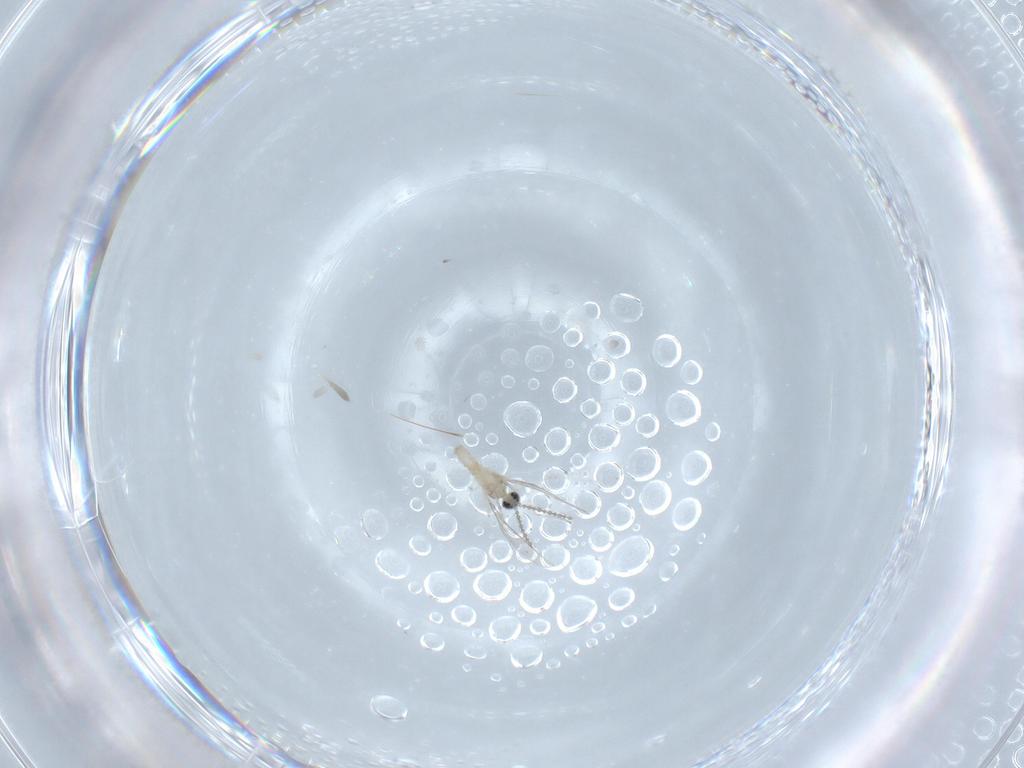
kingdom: Animalia
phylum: Arthropoda
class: Insecta
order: Diptera
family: Cecidomyiidae
